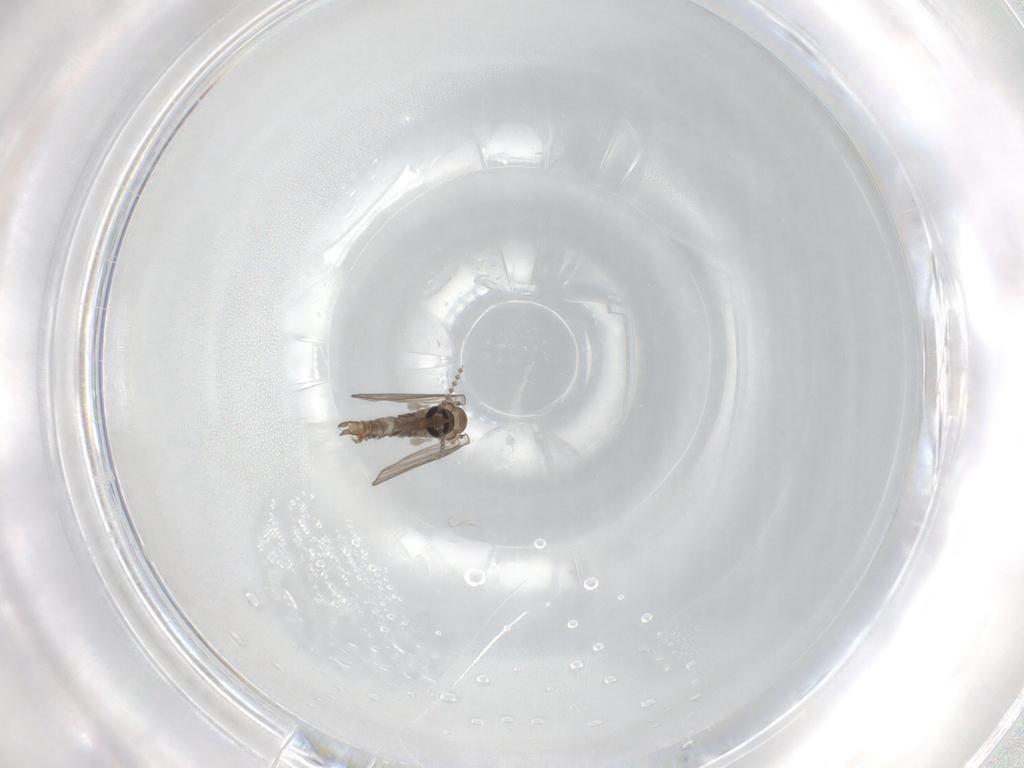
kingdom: Animalia
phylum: Arthropoda
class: Insecta
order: Diptera
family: Psychodidae
